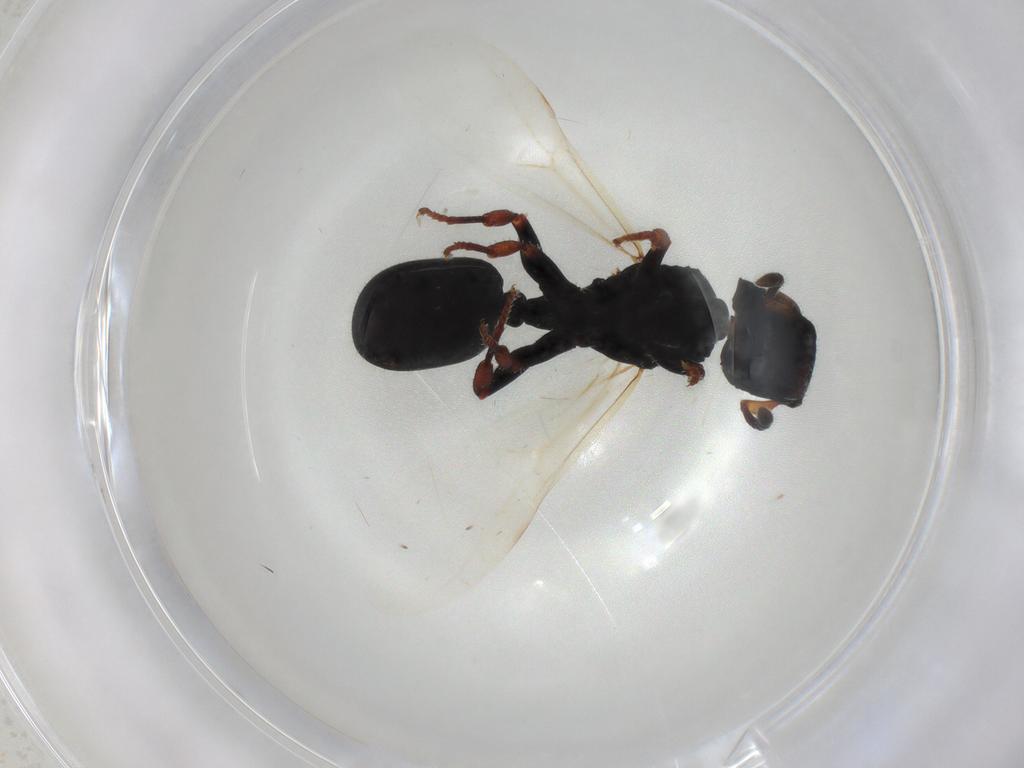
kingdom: Animalia
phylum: Arthropoda
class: Insecta
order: Hymenoptera
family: Formicidae
